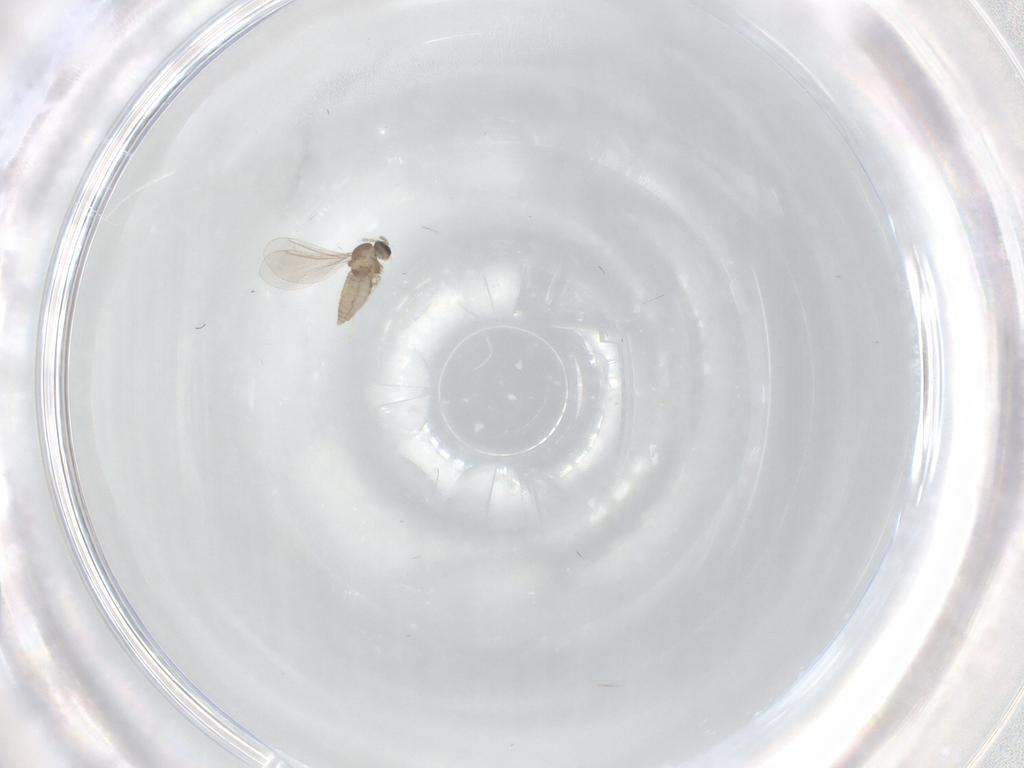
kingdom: Animalia
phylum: Arthropoda
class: Insecta
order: Diptera
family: Cecidomyiidae
